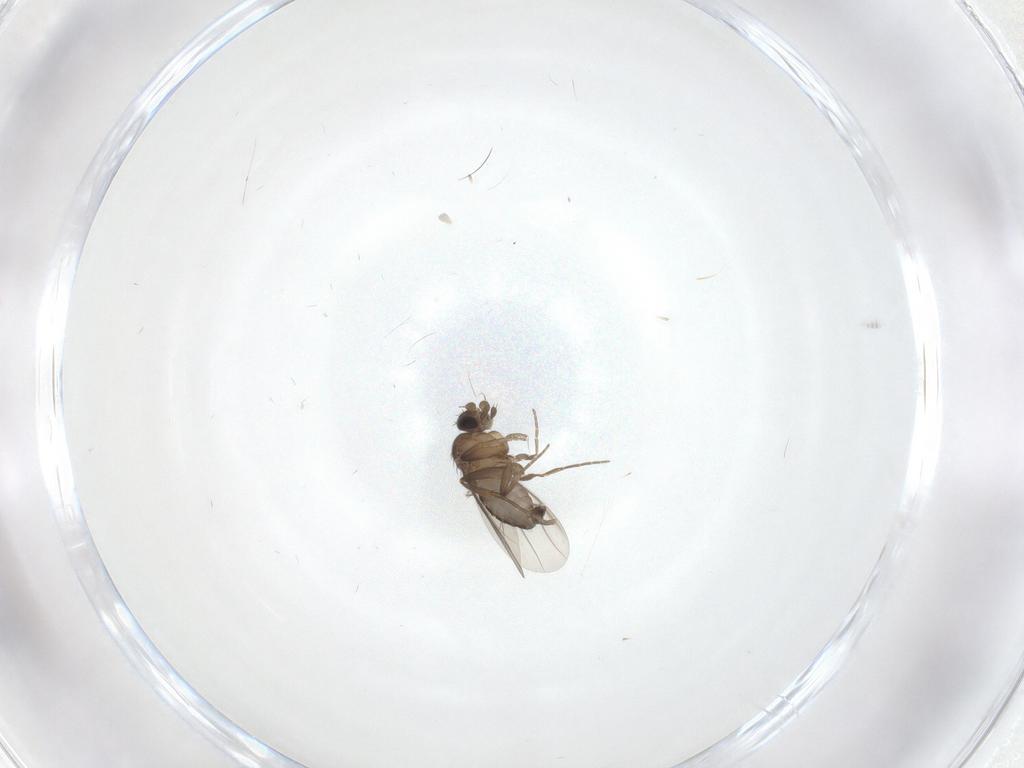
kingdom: Animalia
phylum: Arthropoda
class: Insecta
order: Diptera
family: Phoridae
